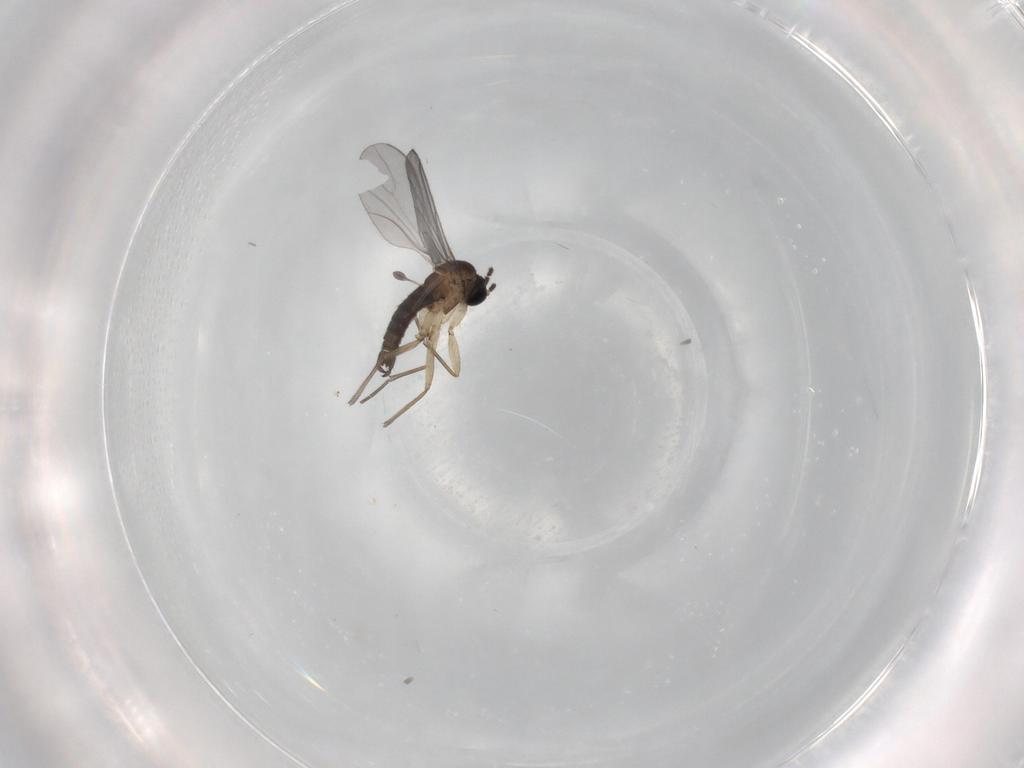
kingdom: Animalia
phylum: Arthropoda
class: Insecta
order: Diptera
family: Sciaridae
